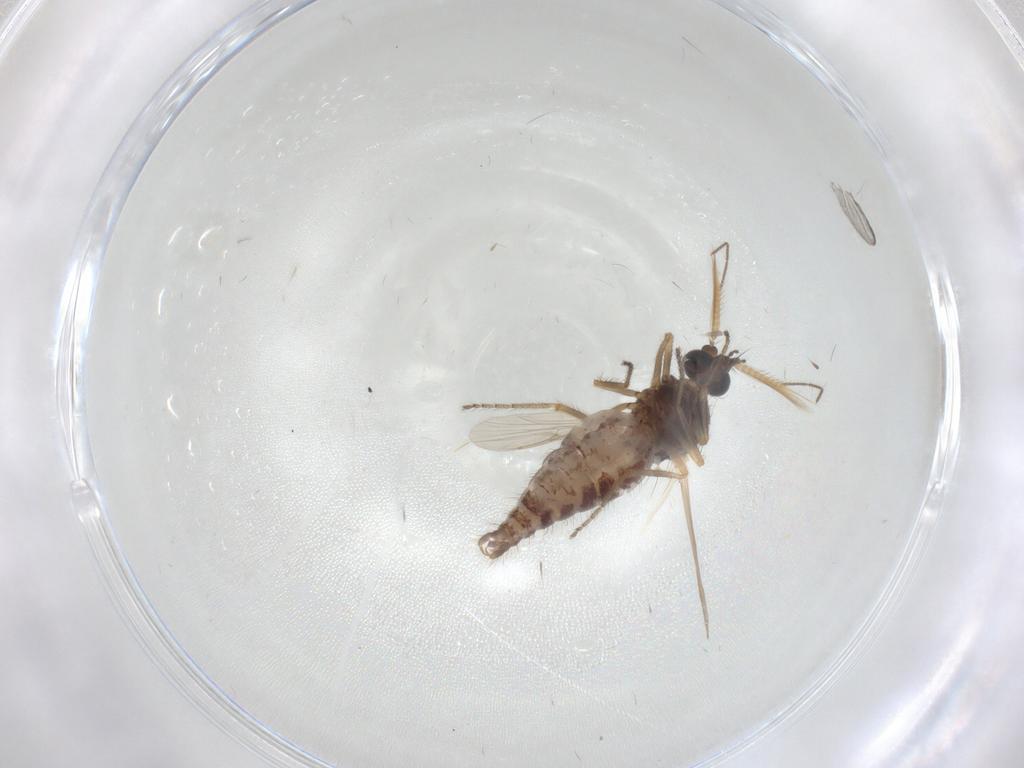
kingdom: Animalia
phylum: Arthropoda
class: Insecta
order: Diptera
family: Ceratopogonidae
